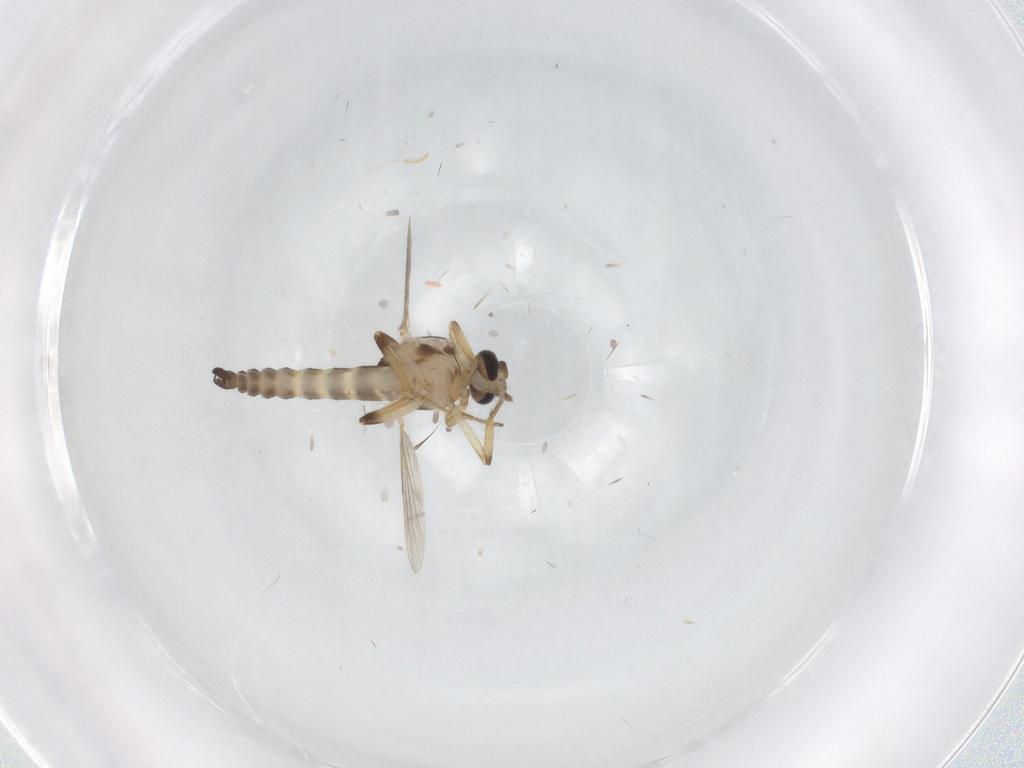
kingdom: Animalia
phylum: Arthropoda
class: Insecta
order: Diptera
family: Ceratopogonidae
